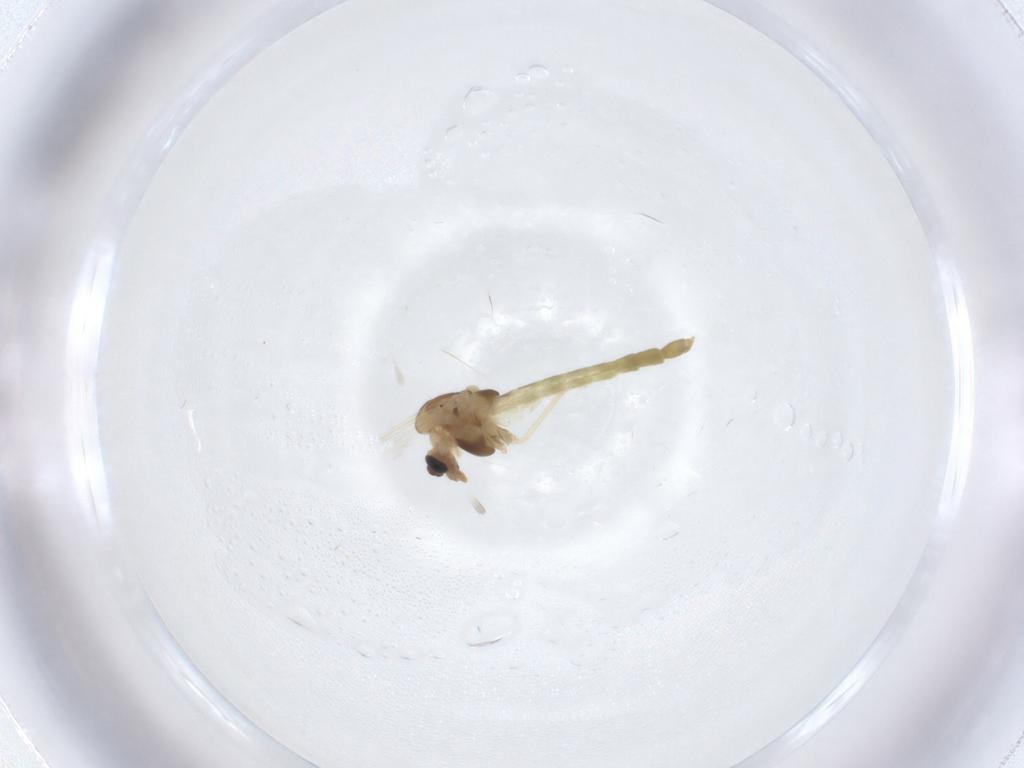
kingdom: Animalia
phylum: Arthropoda
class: Insecta
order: Diptera
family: Chironomidae
